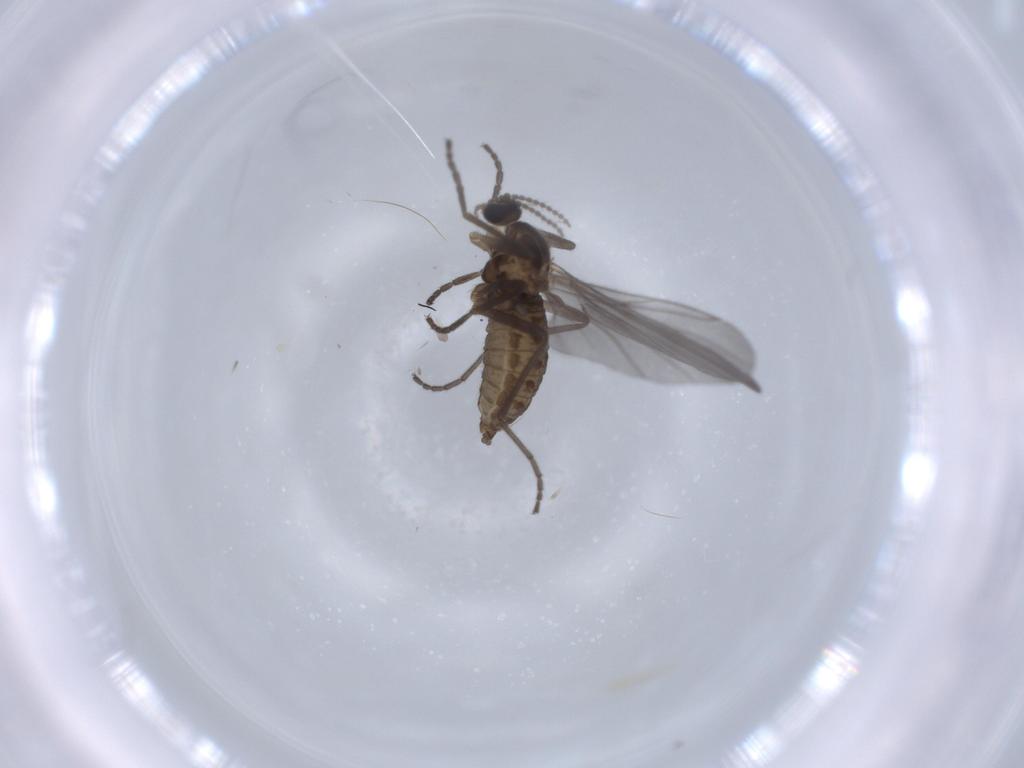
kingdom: Animalia
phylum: Arthropoda
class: Insecta
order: Diptera
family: Cecidomyiidae
